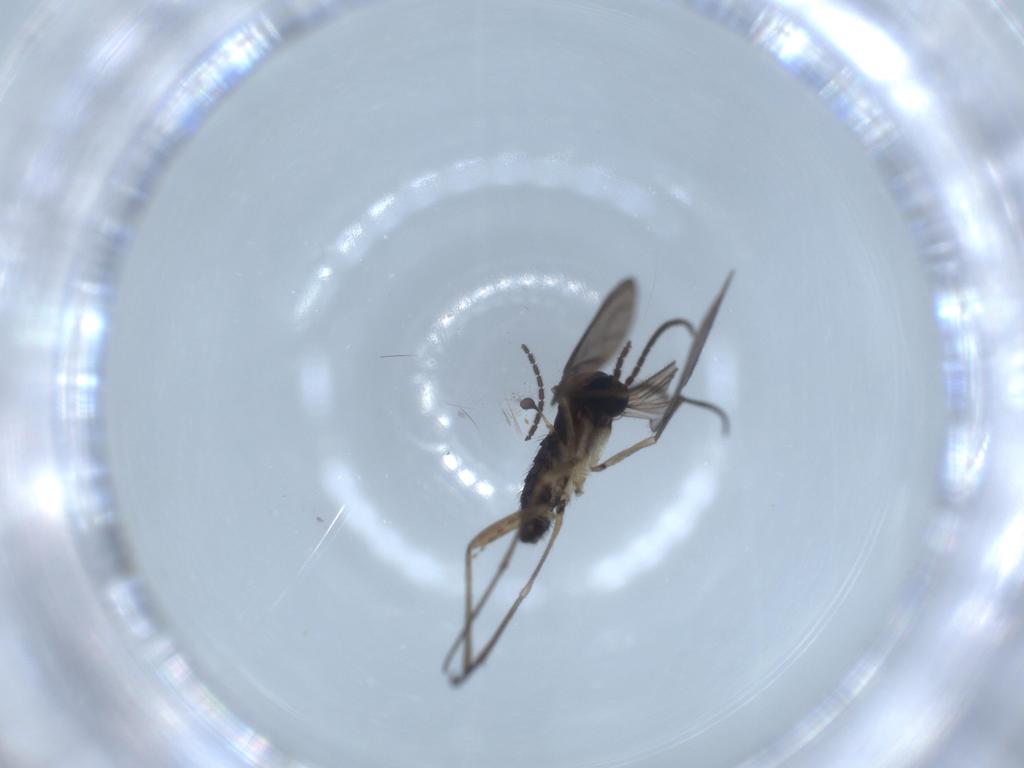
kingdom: Animalia
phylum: Arthropoda
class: Insecta
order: Diptera
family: Cecidomyiidae
